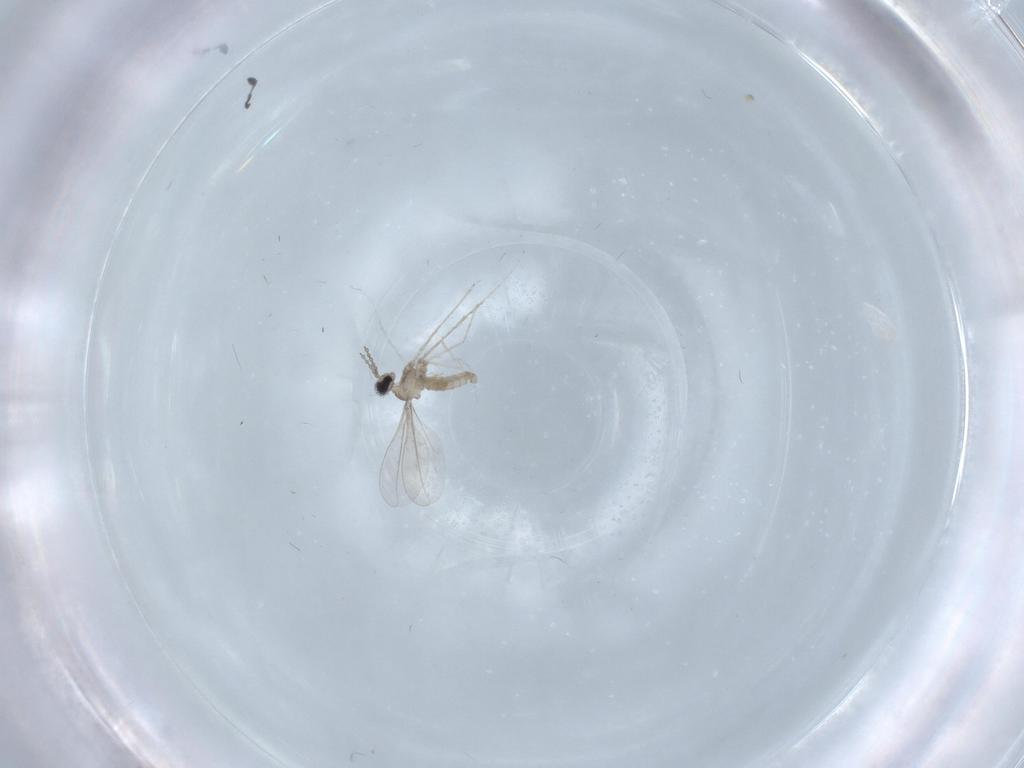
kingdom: Animalia
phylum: Arthropoda
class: Insecta
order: Diptera
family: Cecidomyiidae
